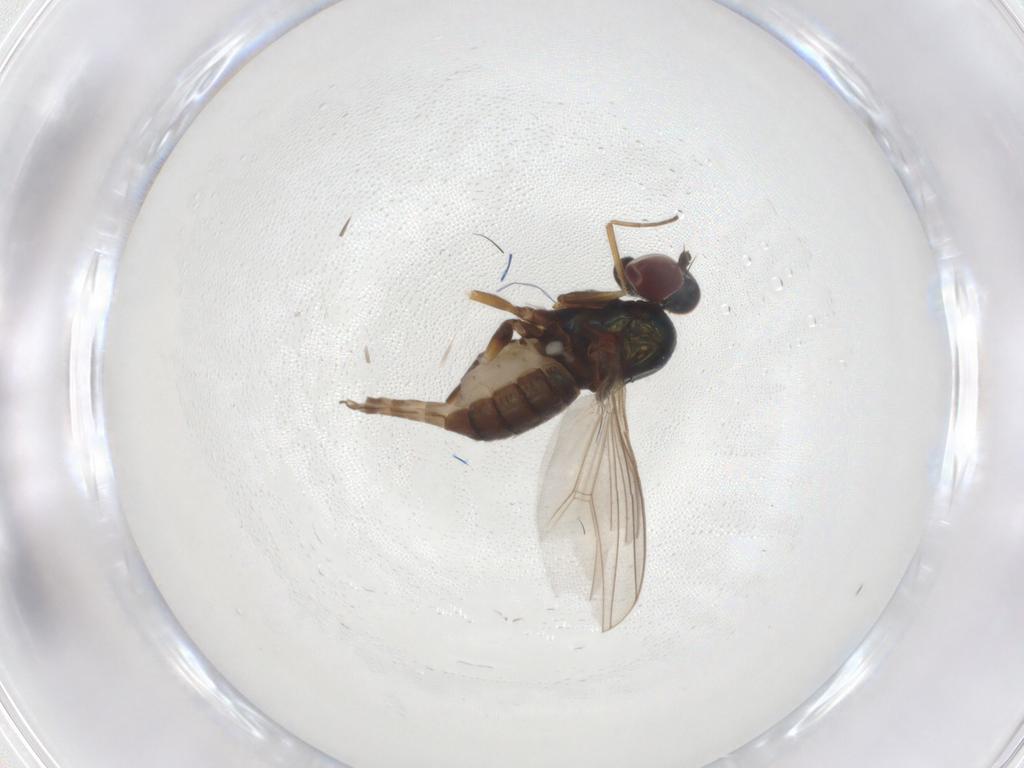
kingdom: Animalia
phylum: Arthropoda
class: Insecta
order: Diptera
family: Dolichopodidae
